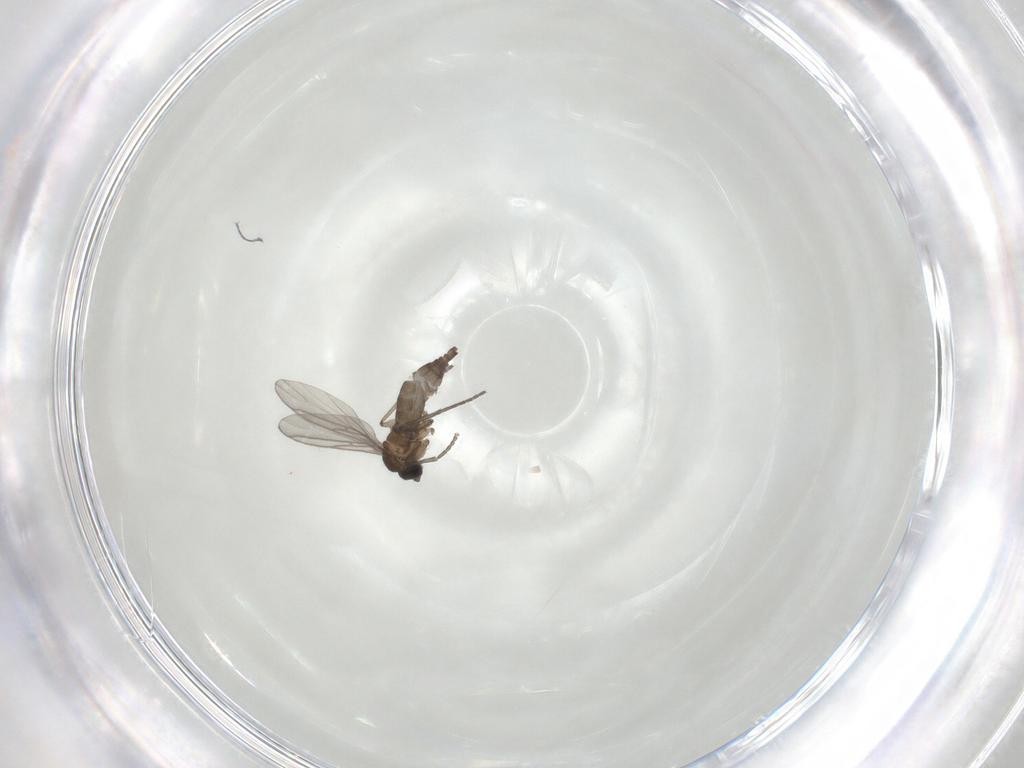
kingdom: Animalia
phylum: Arthropoda
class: Insecta
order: Diptera
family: Sciaridae
